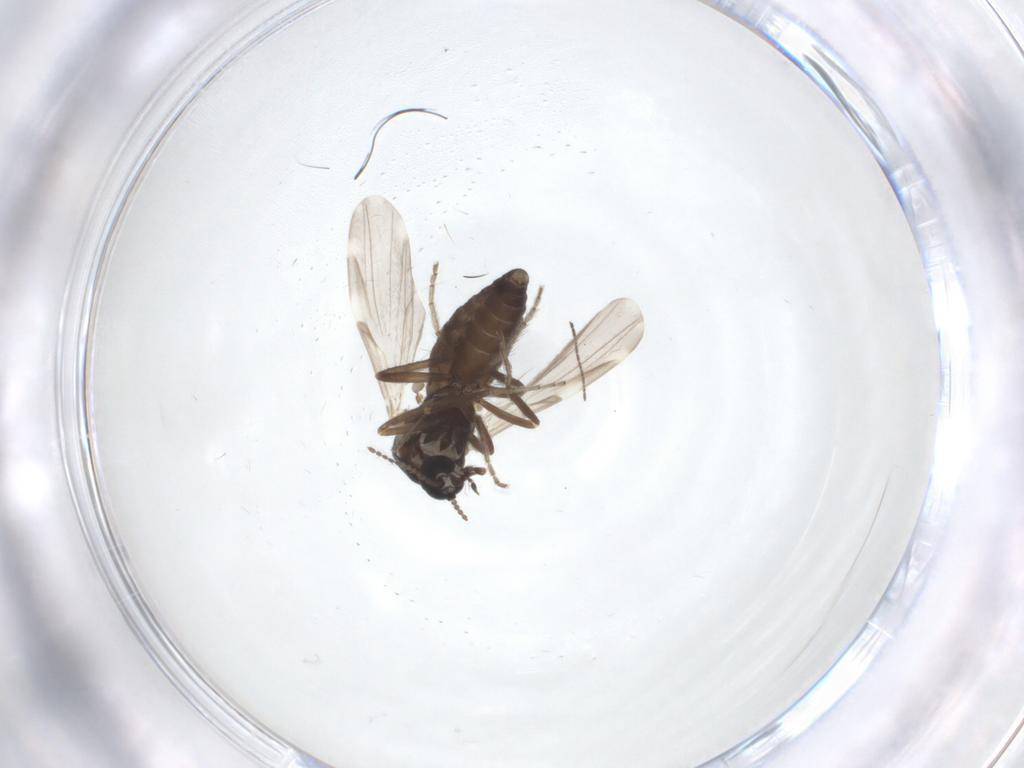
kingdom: Animalia
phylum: Arthropoda
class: Insecta
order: Diptera
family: Ceratopogonidae
